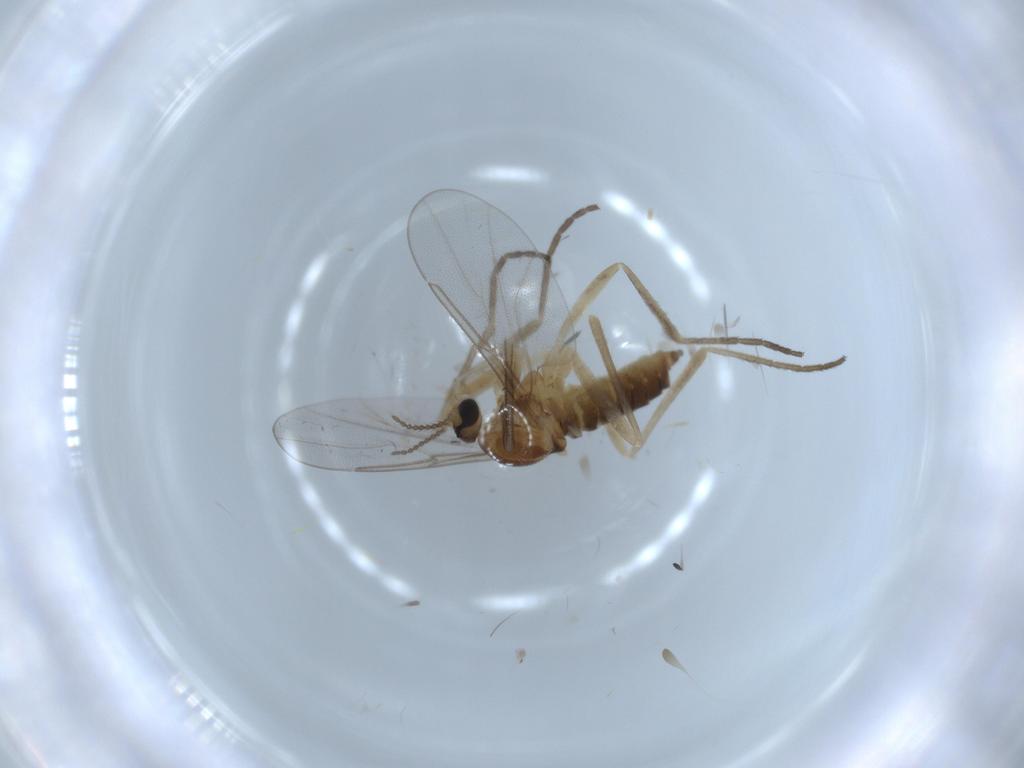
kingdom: Animalia
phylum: Arthropoda
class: Insecta
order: Diptera
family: Cecidomyiidae
